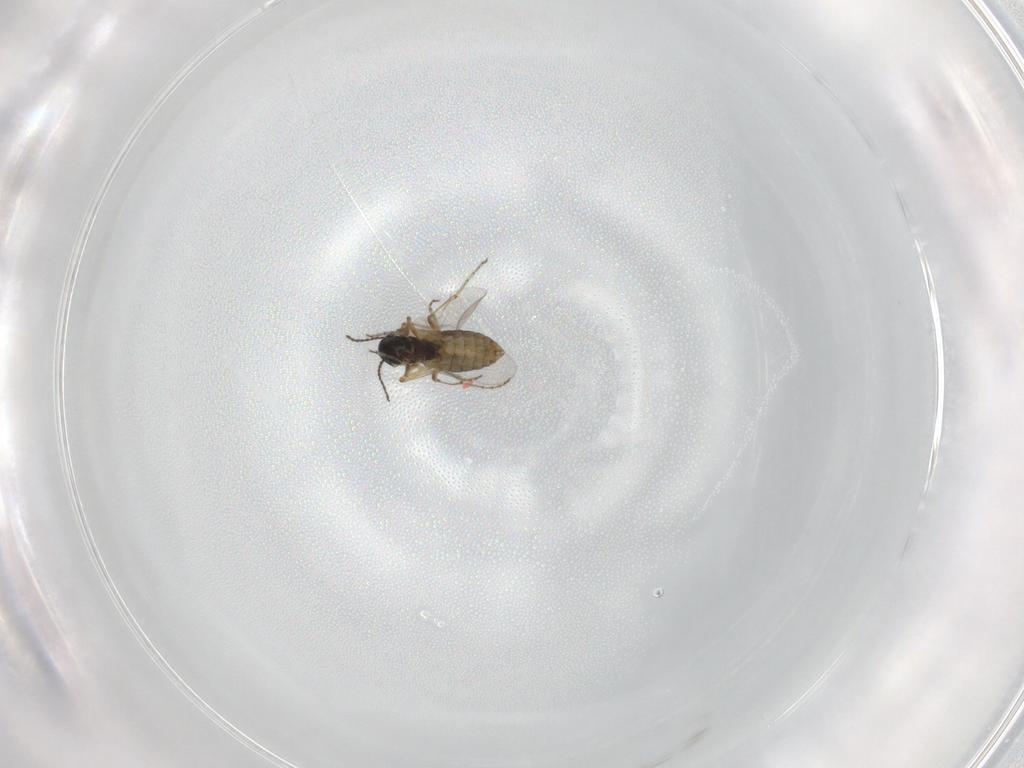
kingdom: Animalia
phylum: Arthropoda
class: Insecta
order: Diptera
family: Ceratopogonidae
